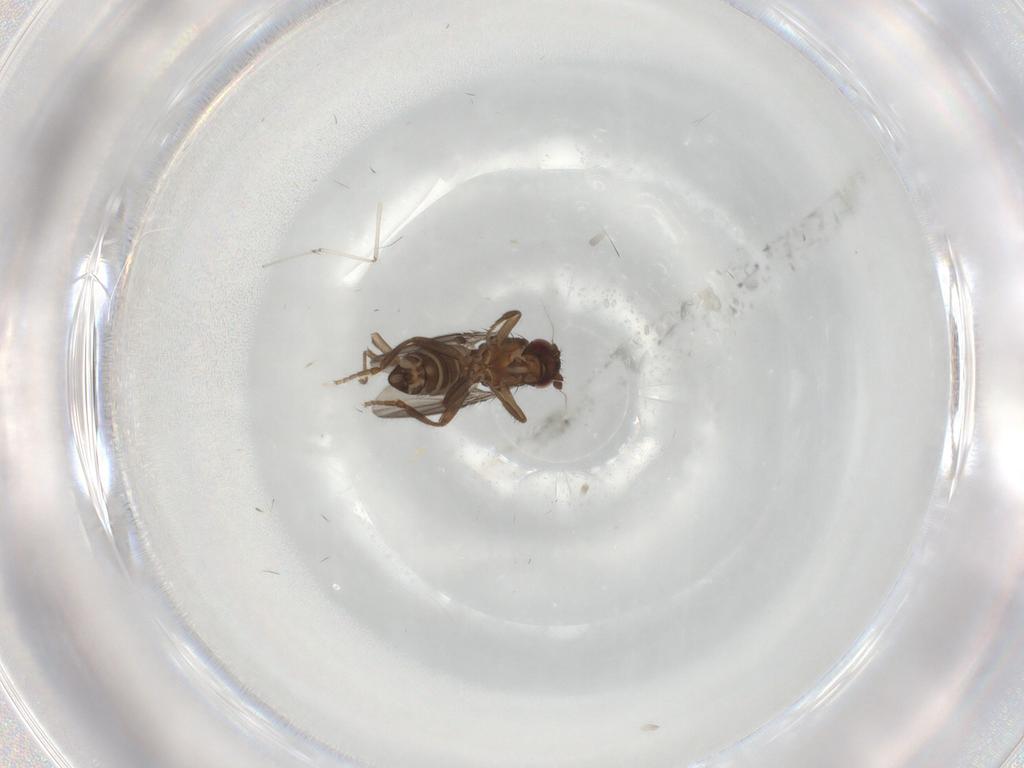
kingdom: Animalia
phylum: Arthropoda
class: Insecta
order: Diptera
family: Sphaeroceridae
